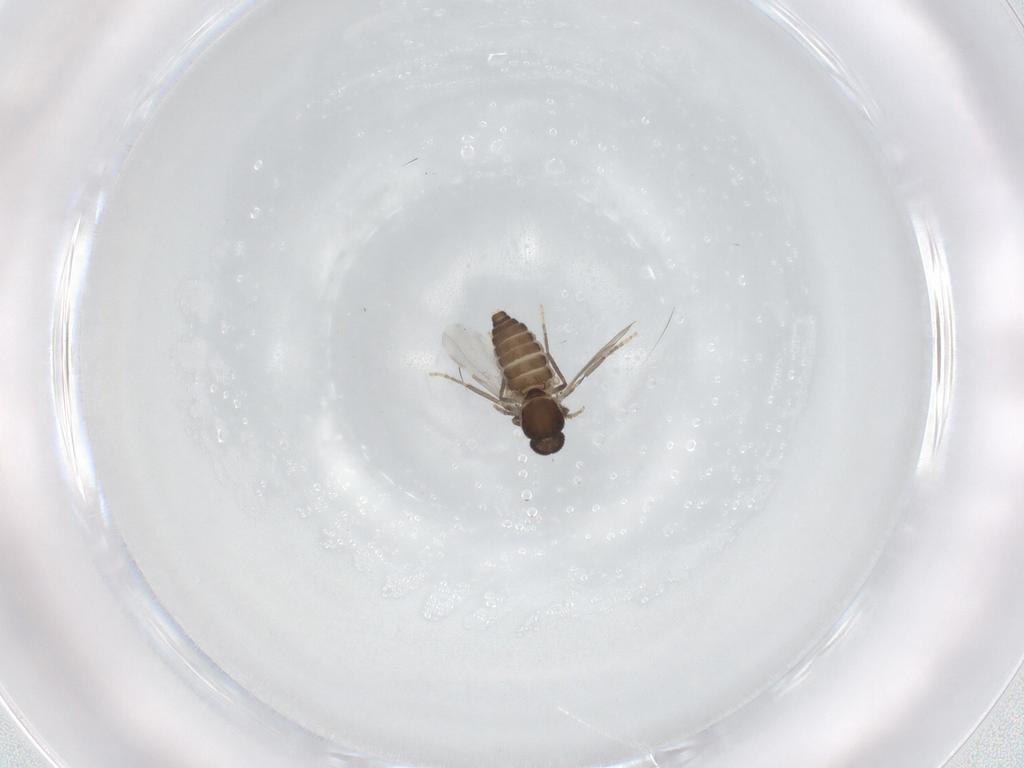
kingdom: Animalia
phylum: Arthropoda
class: Insecta
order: Diptera
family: Ceratopogonidae
